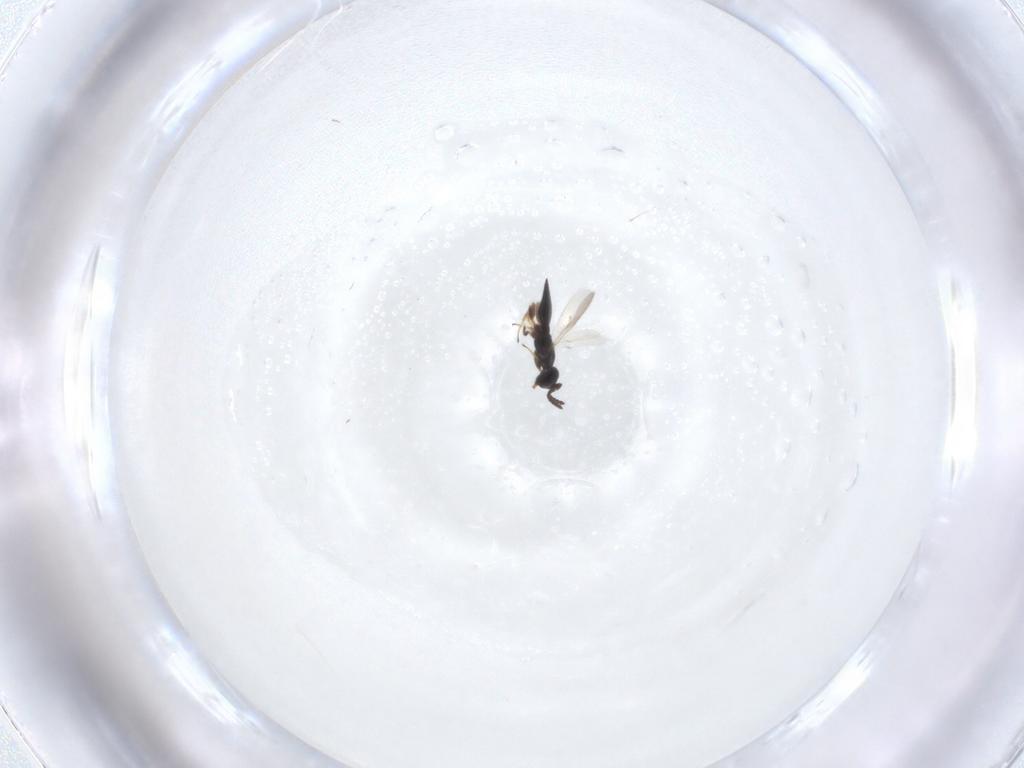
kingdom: Animalia
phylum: Arthropoda
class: Insecta
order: Hymenoptera
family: Scelionidae
